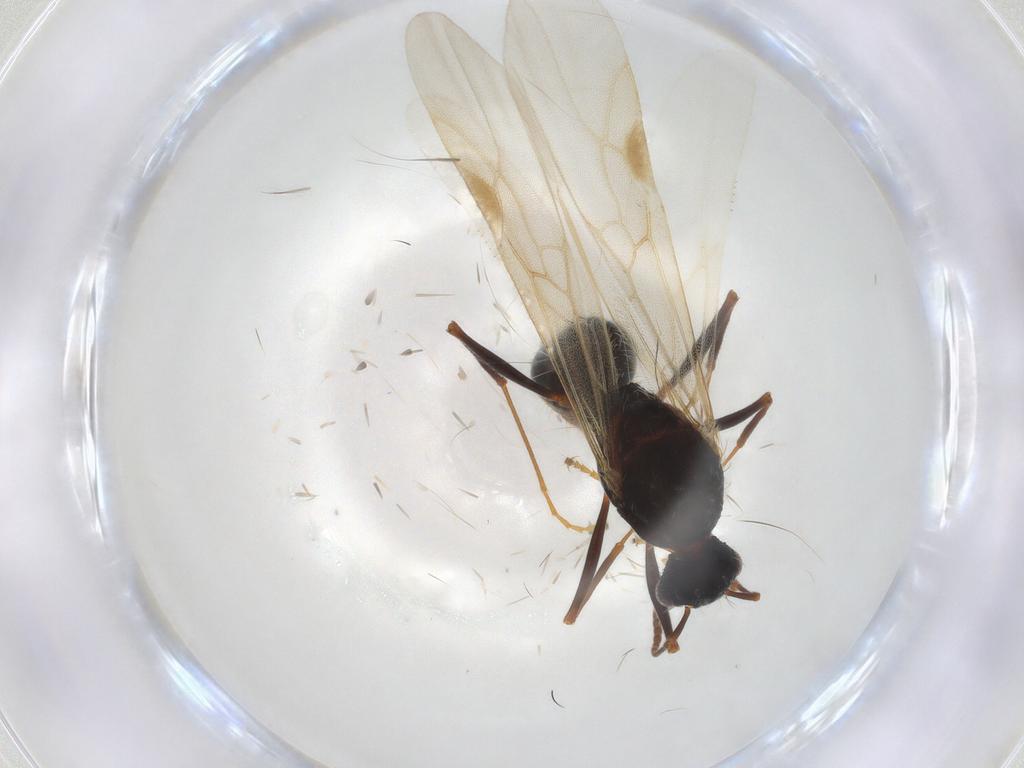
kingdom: Animalia
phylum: Arthropoda
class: Insecta
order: Hymenoptera
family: Formicidae
